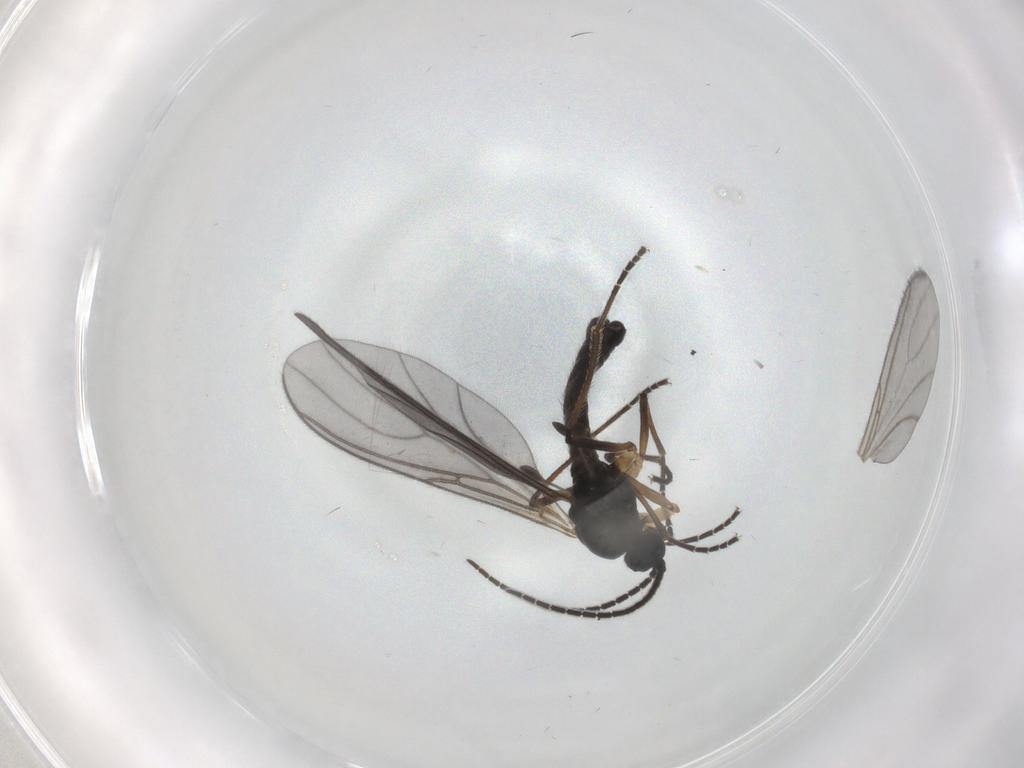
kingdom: Animalia
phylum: Arthropoda
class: Insecta
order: Diptera
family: Sciaridae
